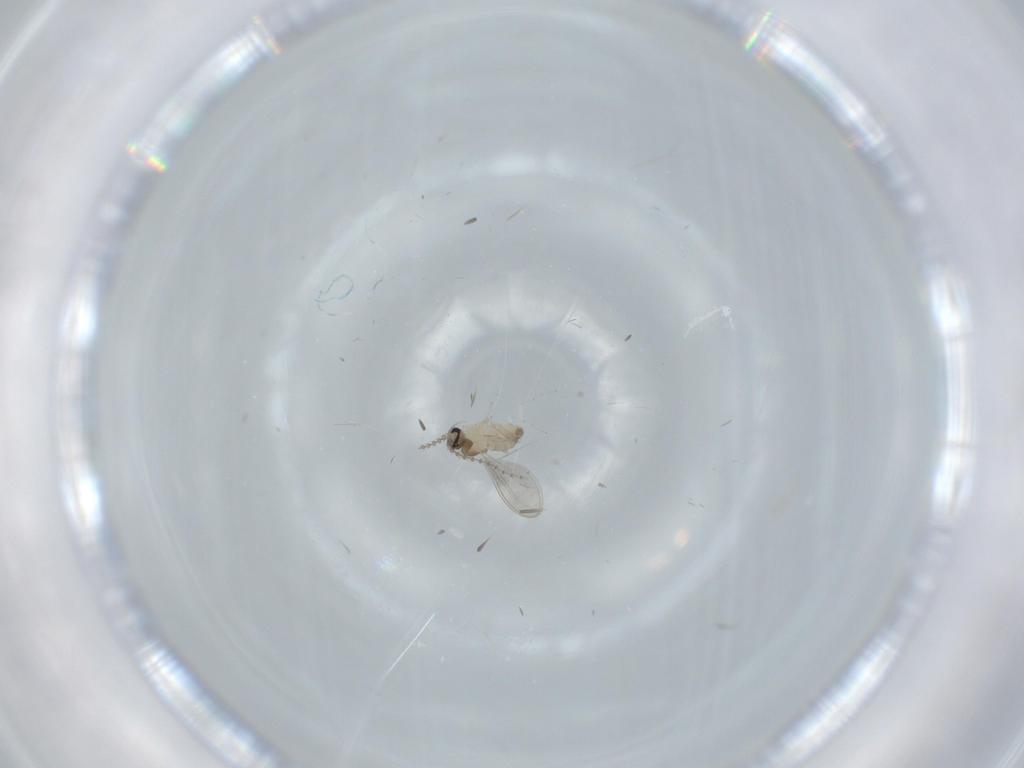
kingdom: Animalia
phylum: Arthropoda
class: Insecta
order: Diptera
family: Cecidomyiidae
